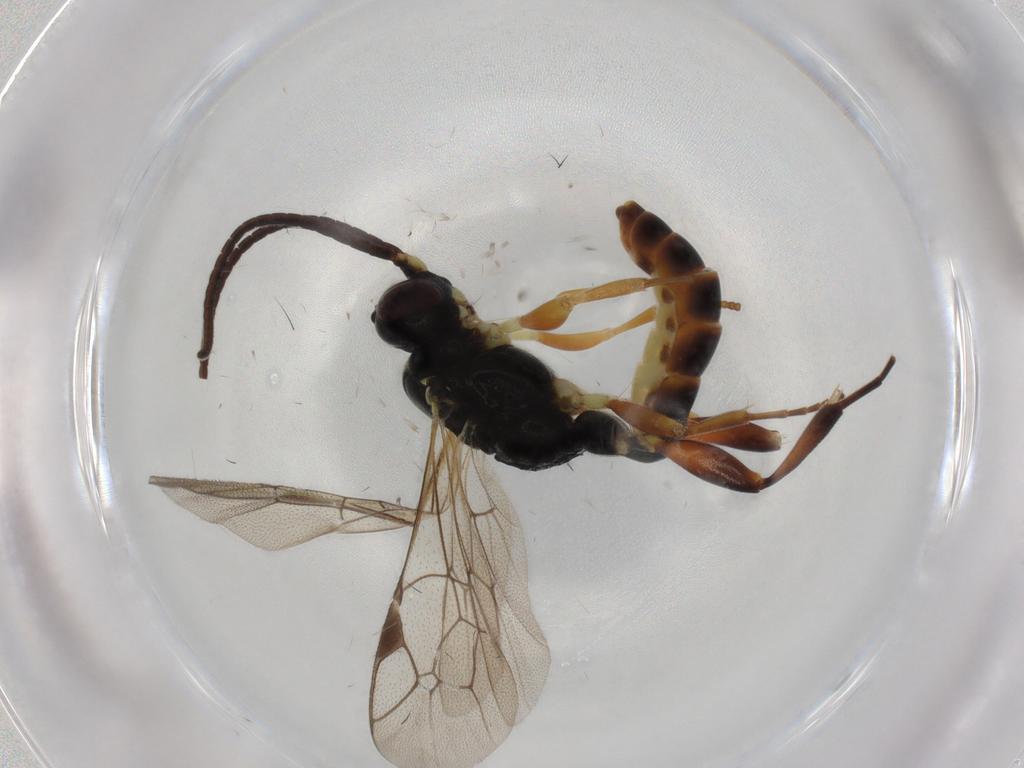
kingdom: Animalia
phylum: Arthropoda
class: Insecta
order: Hymenoptera
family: Ichneumonidae
